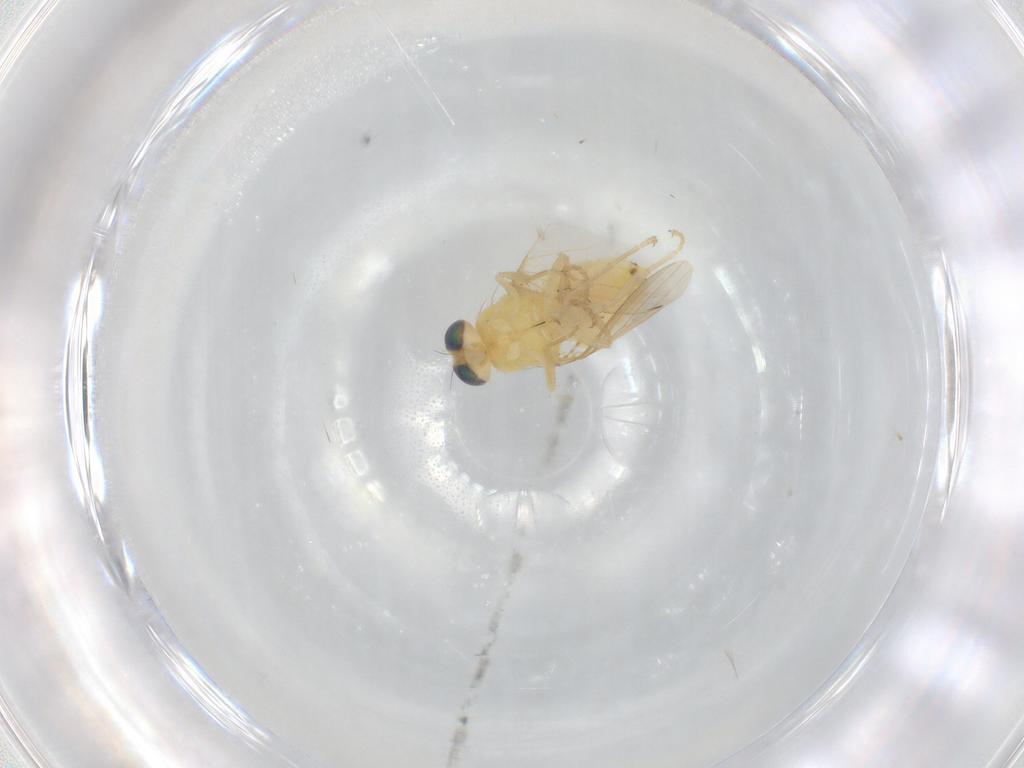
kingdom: Animalia
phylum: Arthropoda
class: Insecta
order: Diptera
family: Chyromyidae
